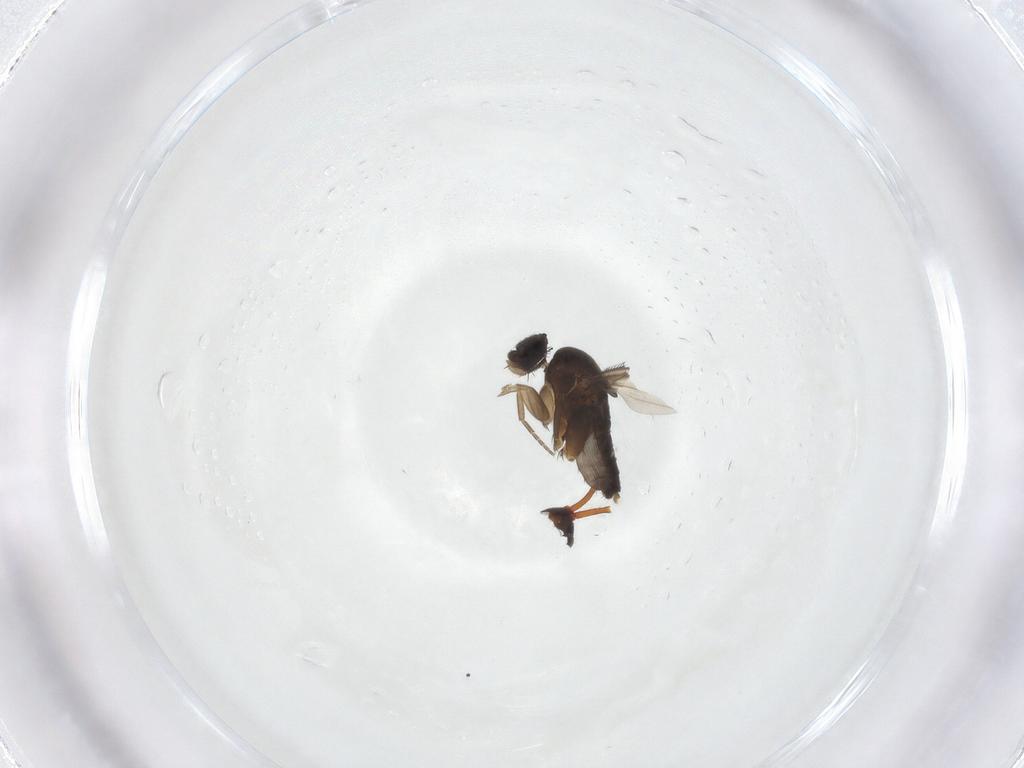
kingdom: Animalia
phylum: Arthropoda
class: Insecta
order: Diptera
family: Phoridae
